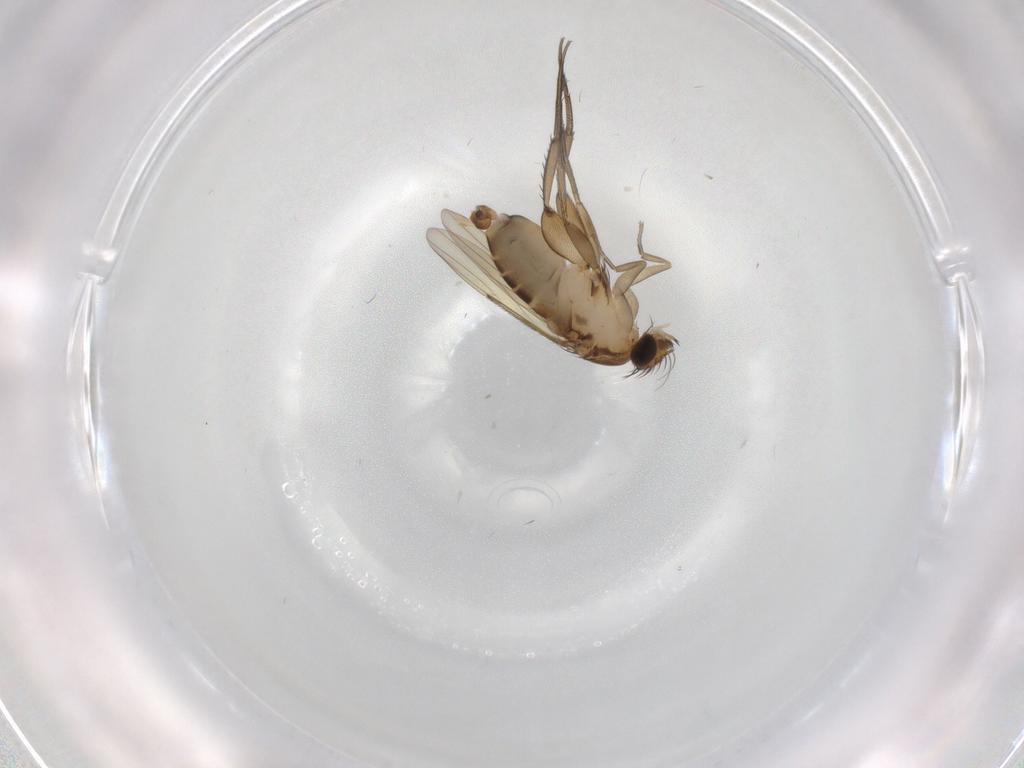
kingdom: Animalia
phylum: Arthropoda
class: Insecta
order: Diptera
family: Phoridae
